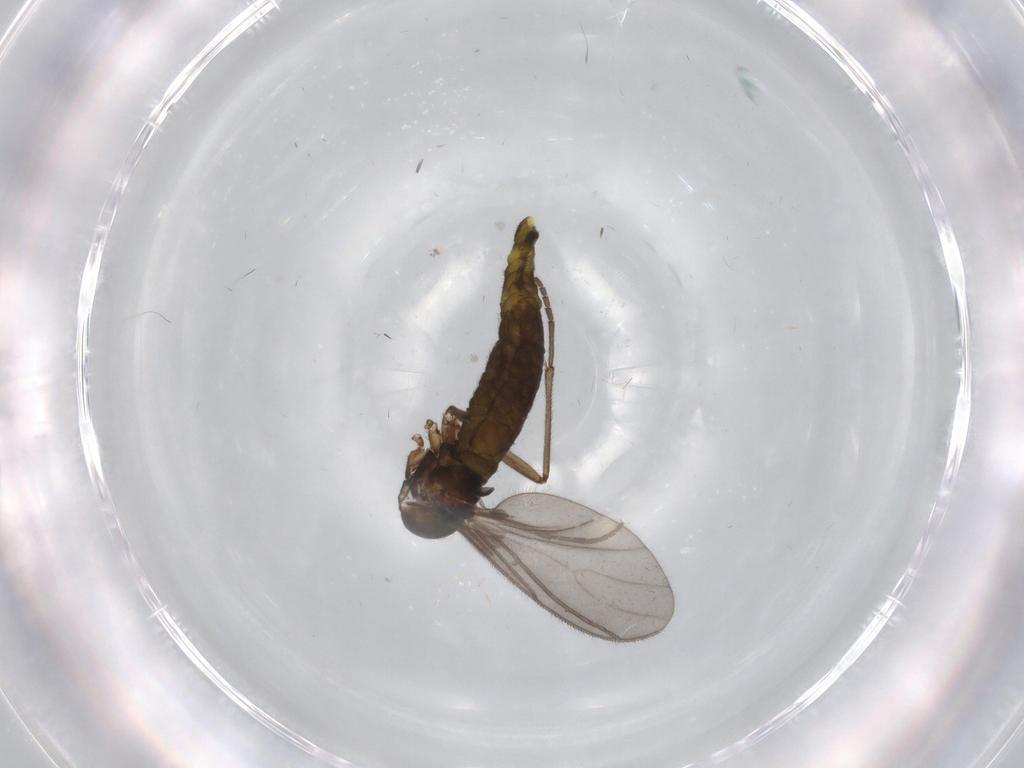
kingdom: Animalia
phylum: Arthropoda
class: Insecta
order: Diptera
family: Sciaridae
